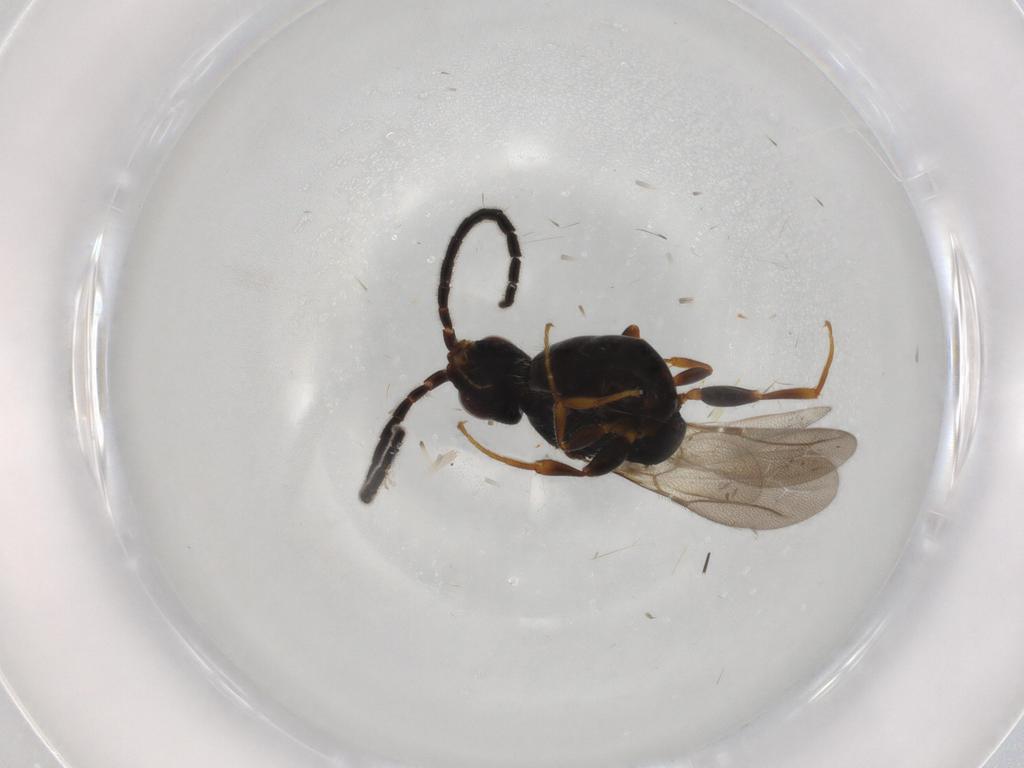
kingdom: Animalia
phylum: Arthropoda
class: Insecta
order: Hymenoptera
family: Bethylidae
